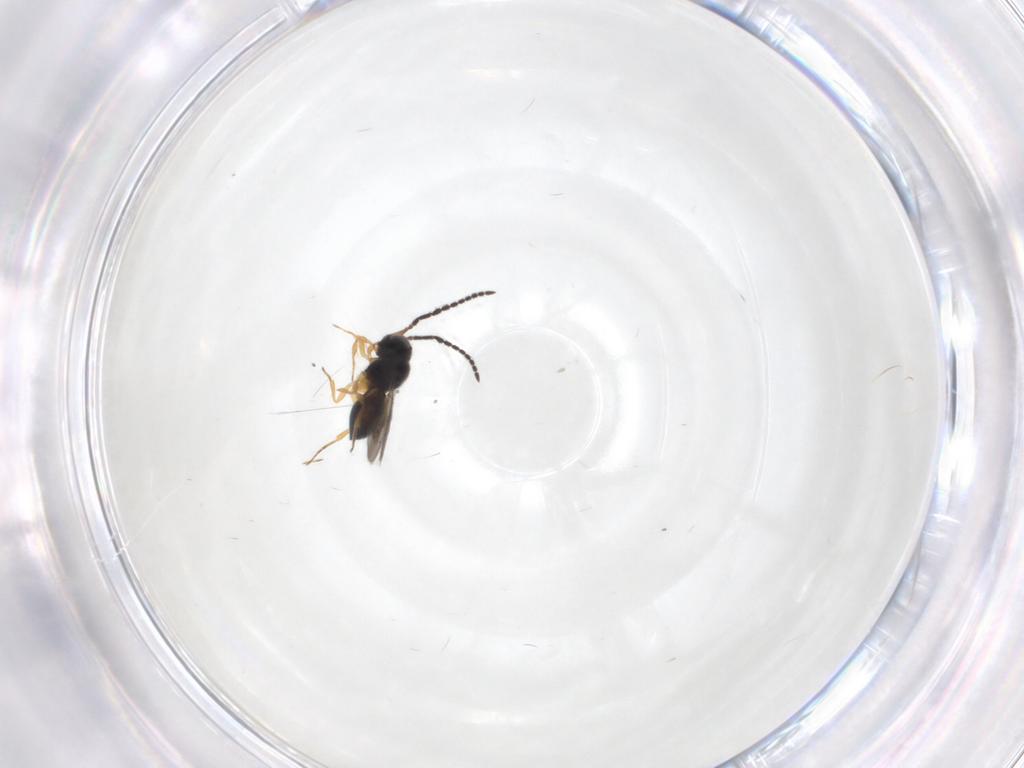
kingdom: Animalia
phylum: Arthropoda
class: Insecta
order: Hymenoptera
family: Scelionidae
